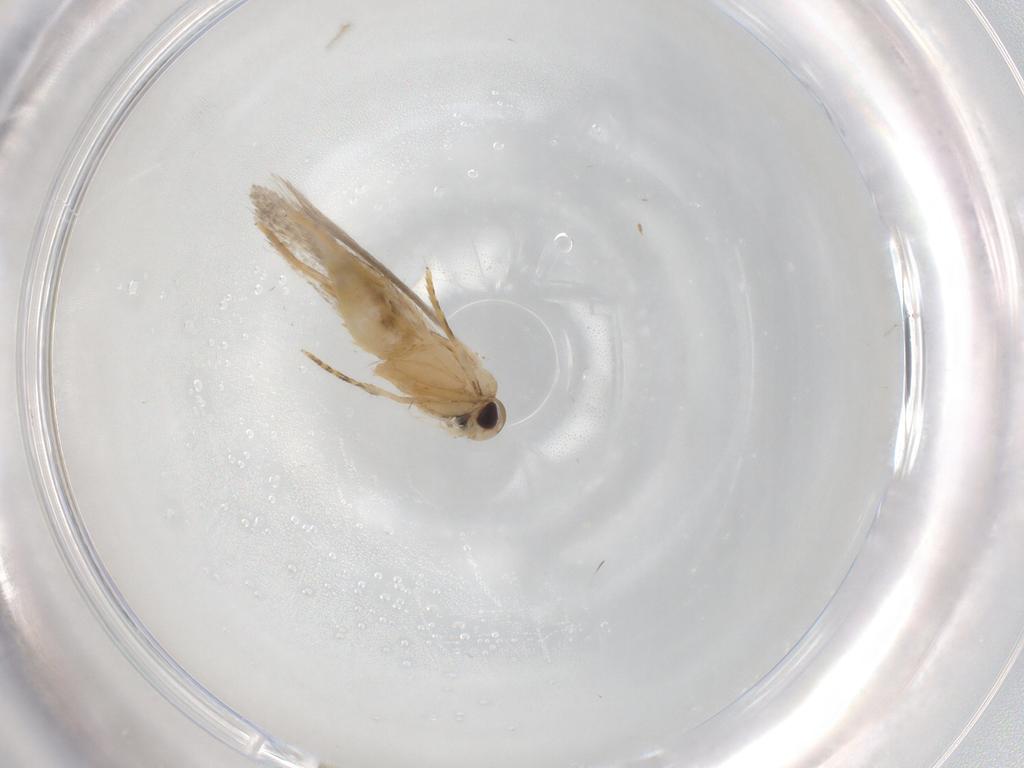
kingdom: Animalia
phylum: Arthropoda
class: Insecta
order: Lepidoptera
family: Autostichidae
